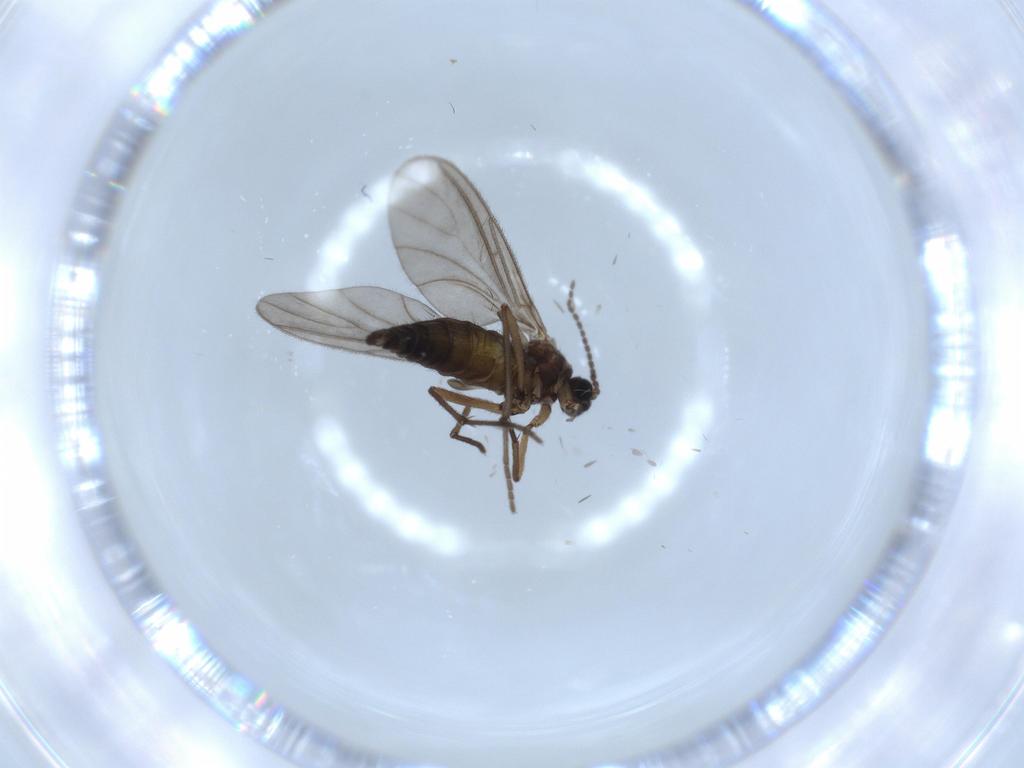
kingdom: Animalia
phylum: Arthropoda
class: Insecta
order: Diptera
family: Sciaridae
